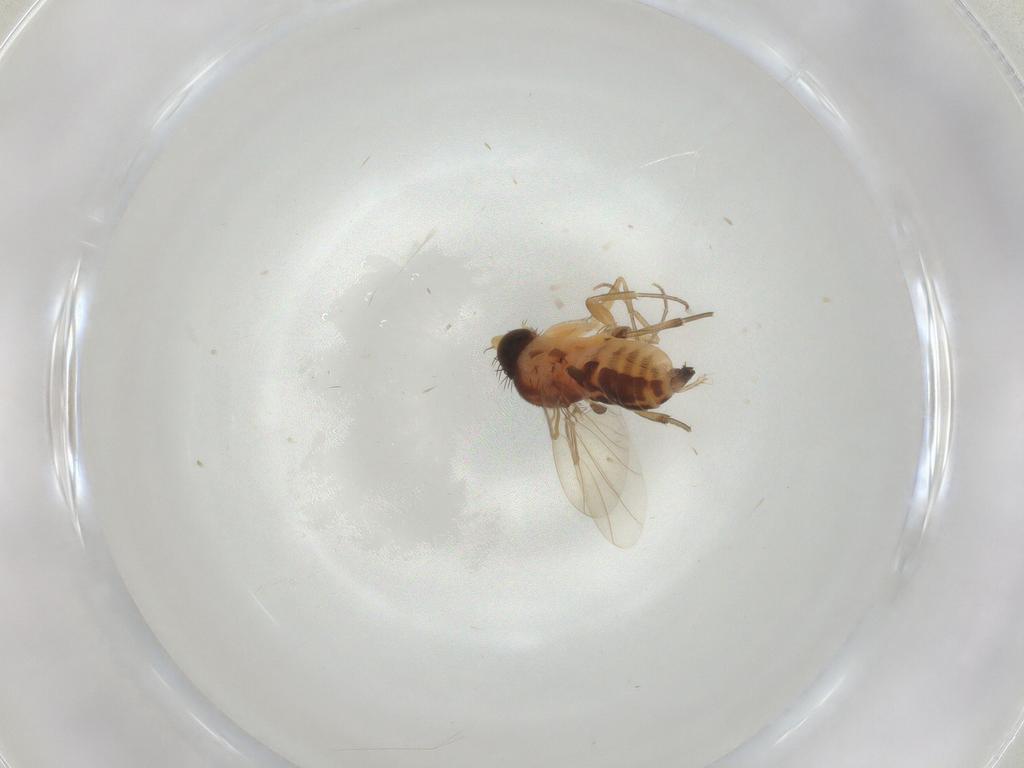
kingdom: Animalia
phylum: Arthropoda
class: Insecta
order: Diptera
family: Phoridae
